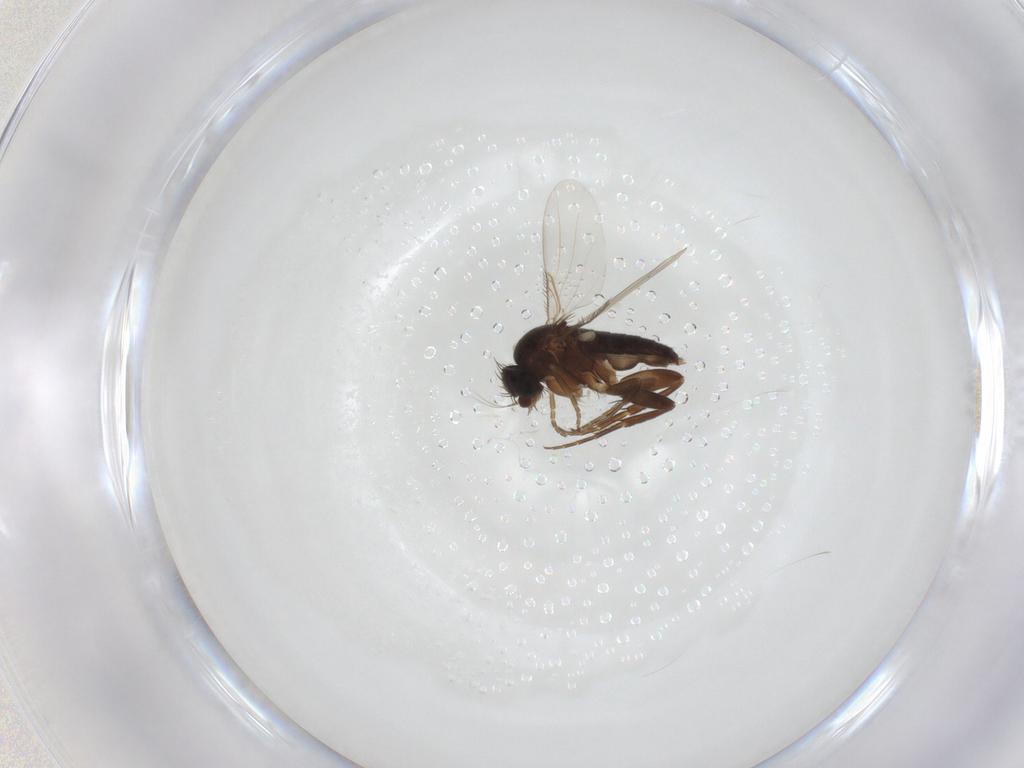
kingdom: Animalia
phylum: Arthropoda
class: Insecta
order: Diptera
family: Phoridae
